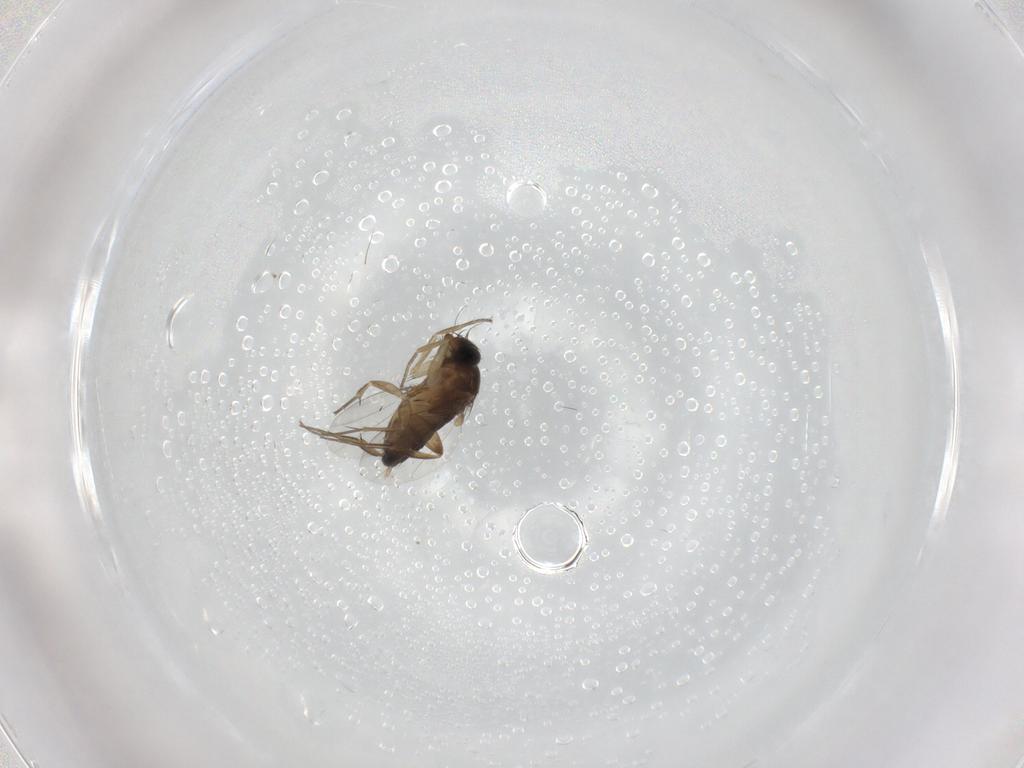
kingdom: Animalia
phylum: Arthropoda
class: Insecta
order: Diptera
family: Phoridae
